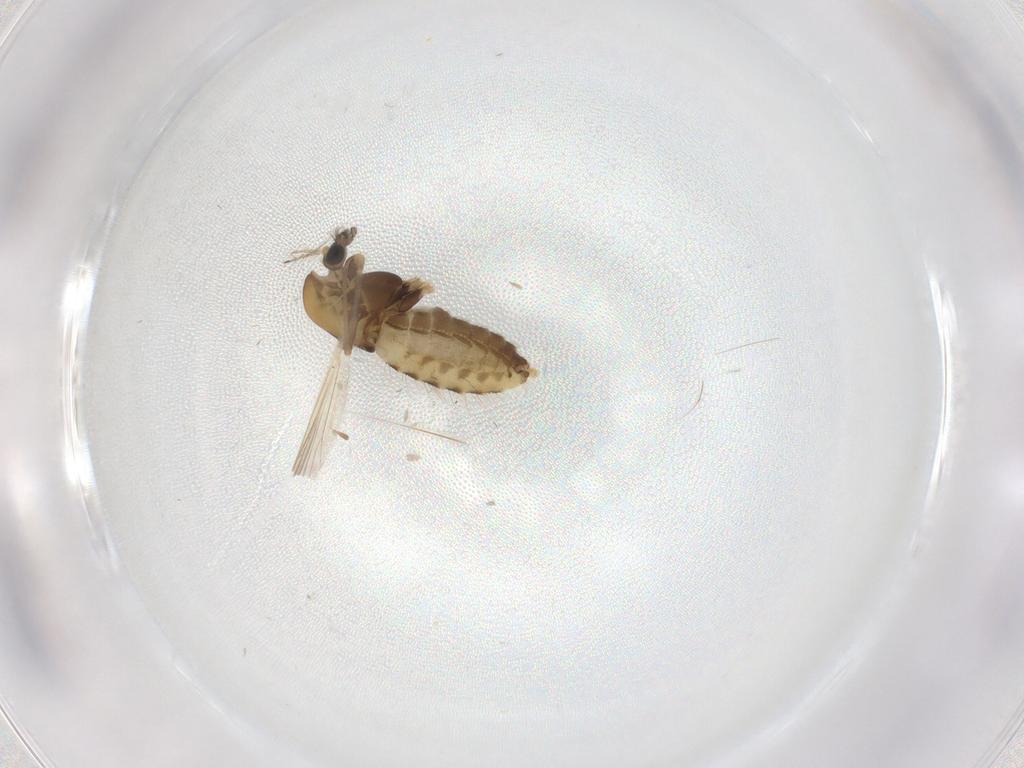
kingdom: Animalia
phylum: Arthropoda
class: Insecta
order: Diptera
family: Chironomidae
